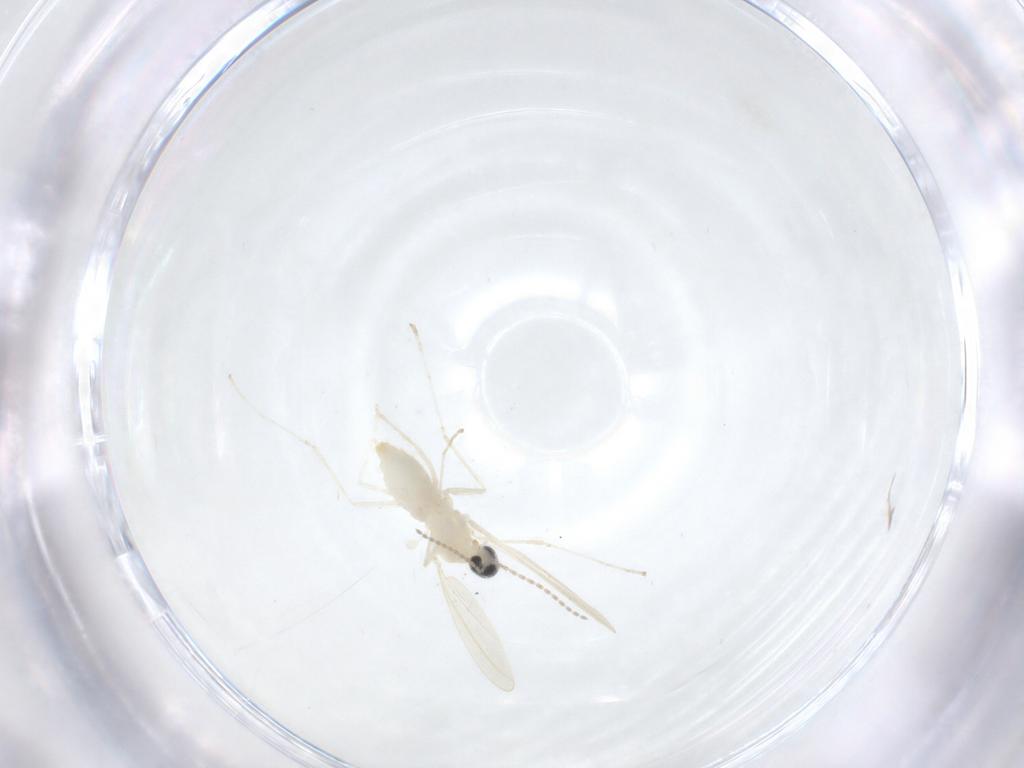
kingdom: Animalia
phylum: Arthropoda
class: Insecta
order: Diptera
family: Cecidomyiidae
